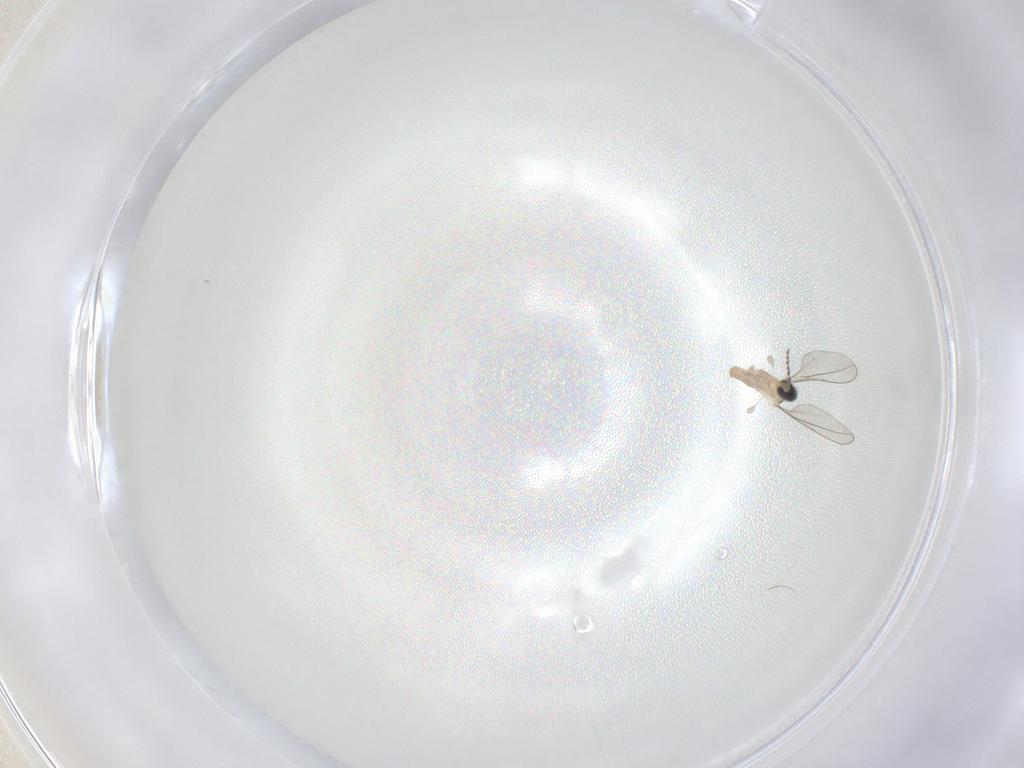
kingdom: Animalia
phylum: Arthropoda
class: Insecta
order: Diptera
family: Cecidomyiidae
